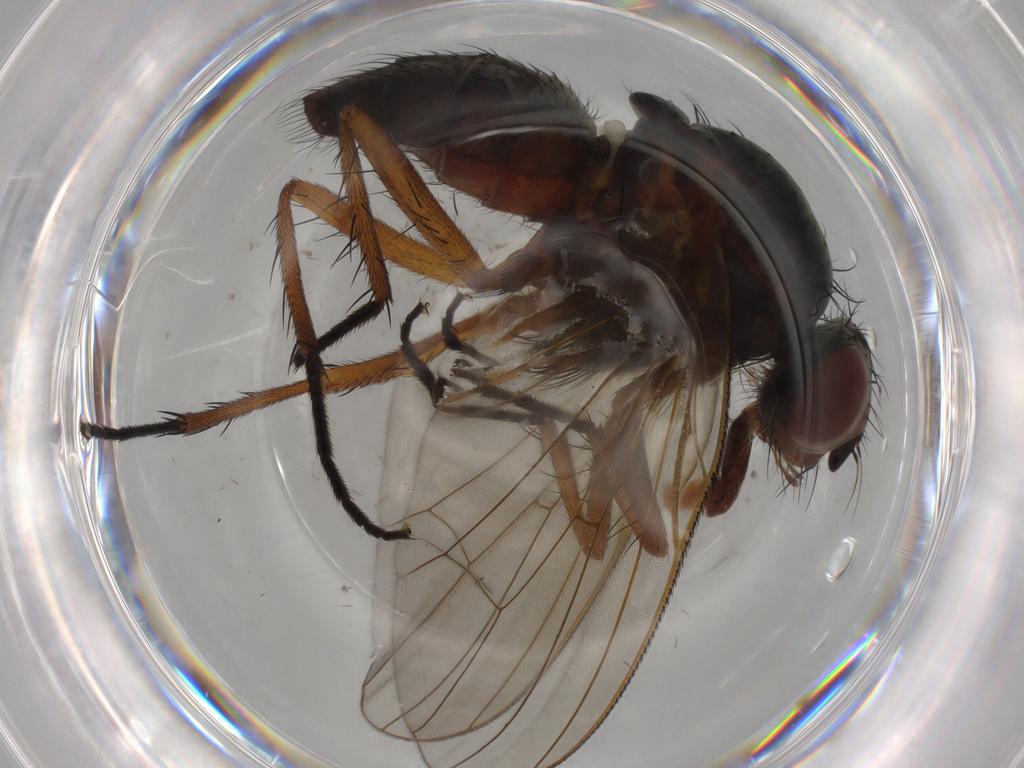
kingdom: Animalia
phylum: Arthropoda
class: Insecta
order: Diptera
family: Anthomyiidae
